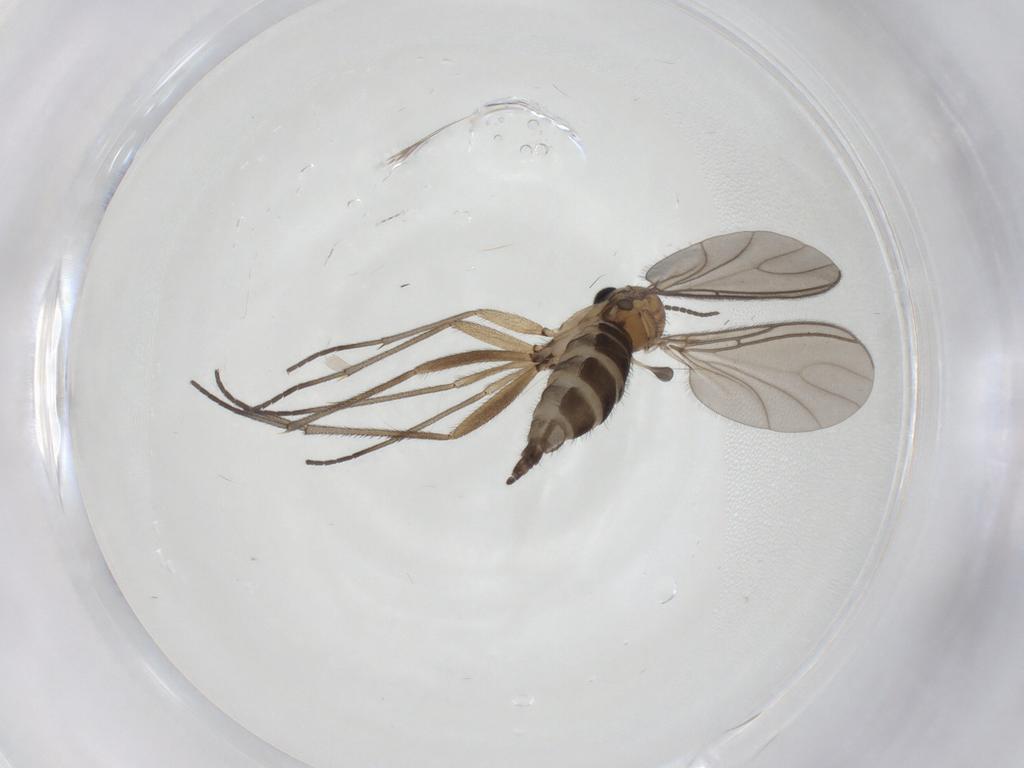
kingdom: Animalia
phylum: Arthropoda
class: Insecta
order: Diptera
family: Sciaridae
